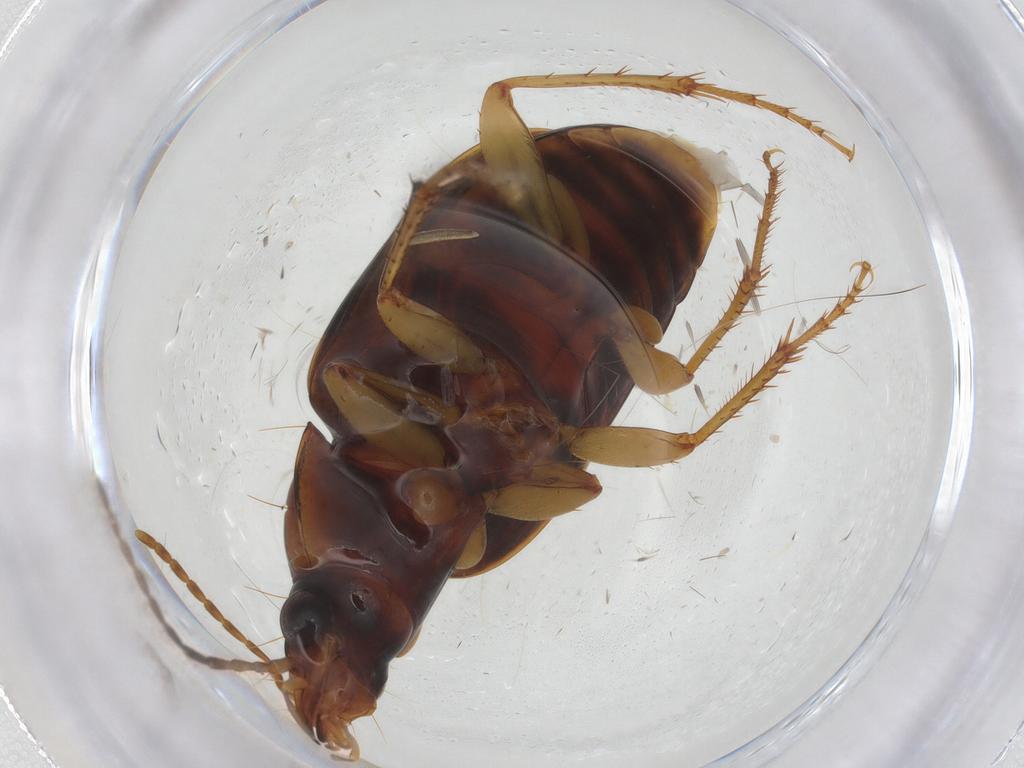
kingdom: Animalia
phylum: Arthropoda
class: Insecta
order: Coleoptera
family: Carabidae
